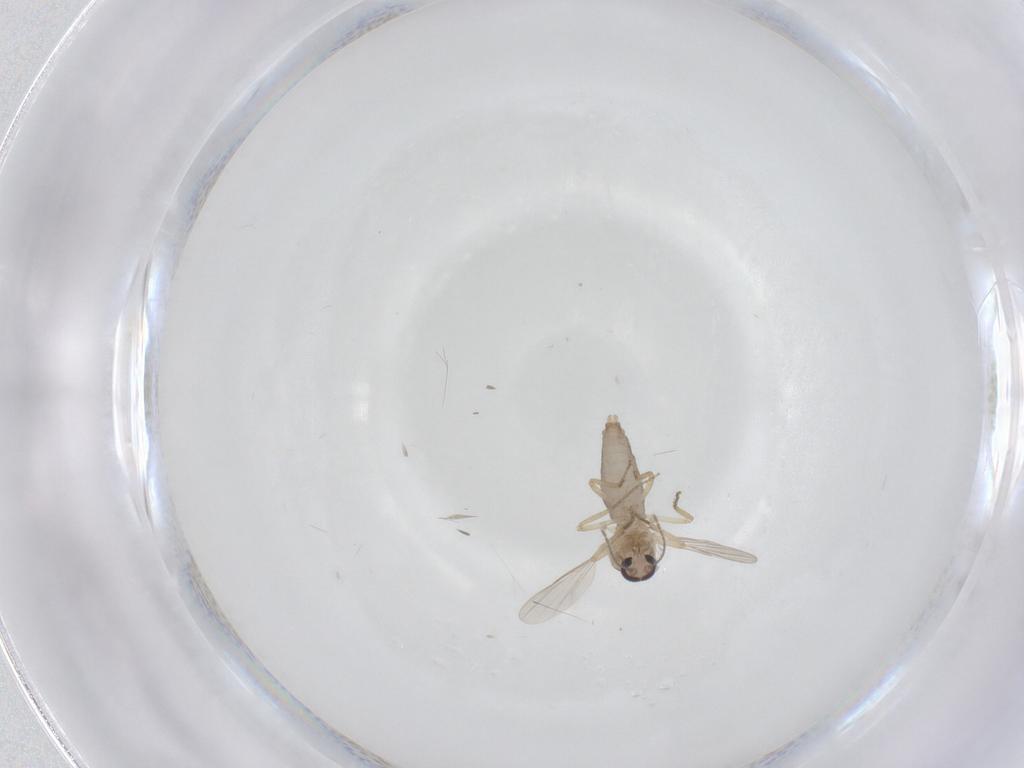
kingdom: Animalia
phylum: Arthropoda
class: Insecta
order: Diptera
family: Ceratopogonidae
